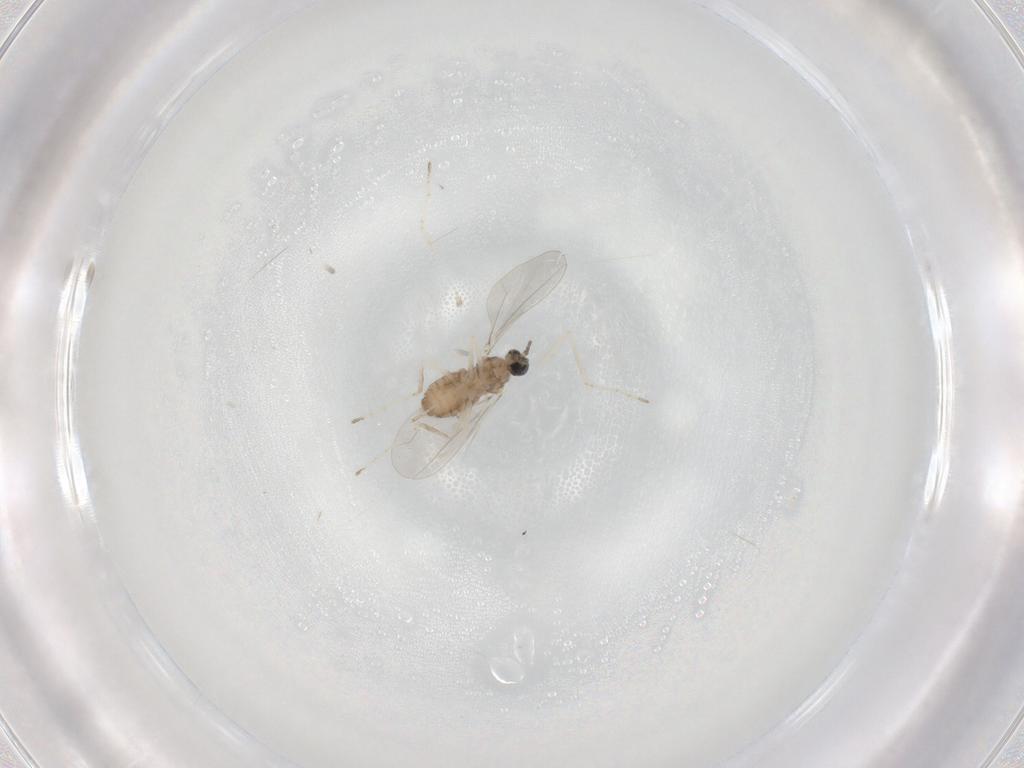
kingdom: Animalia
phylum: Arthropoda
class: Insecta
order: Diptera
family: Cecidomyiidae
